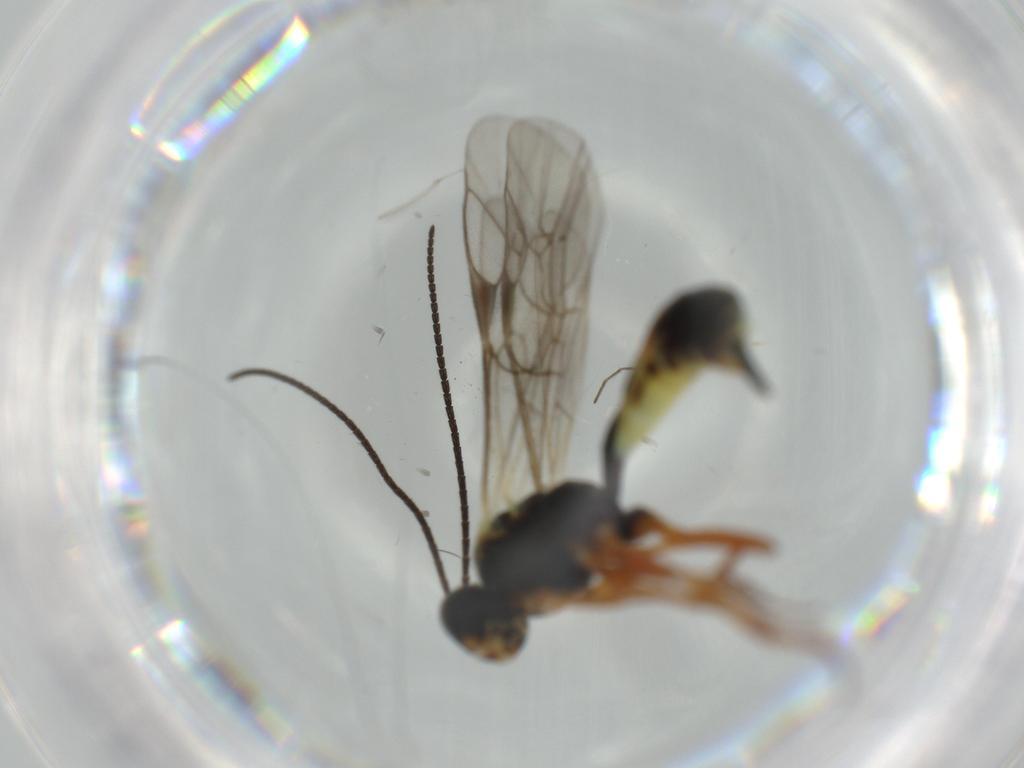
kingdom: Animalia
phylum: Arthropoda
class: Insecta
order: Hymenoptera
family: Ichneumonidae
